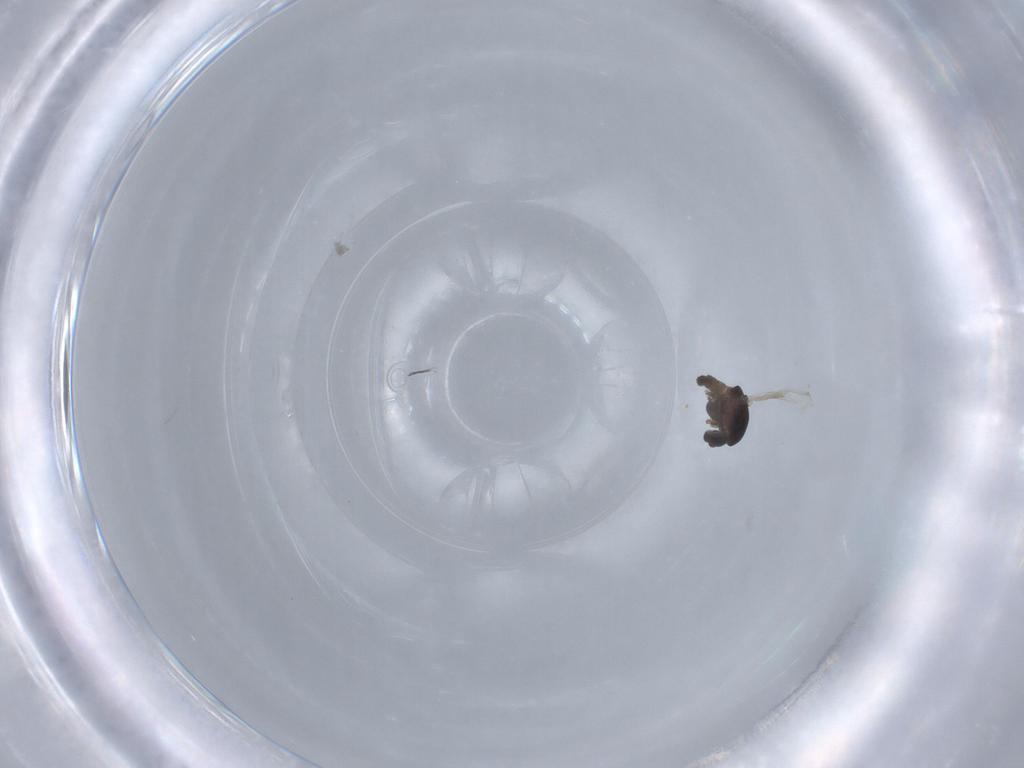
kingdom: Animalia
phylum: Arthropoda
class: Insecta
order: Diptera
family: Chironomidae
